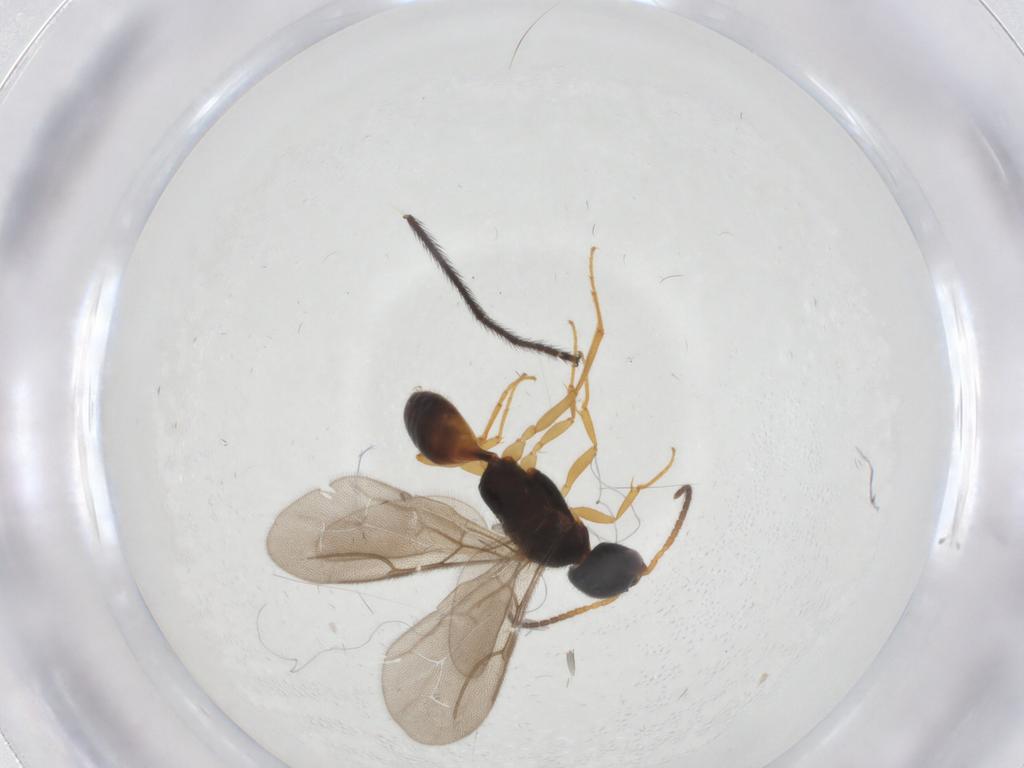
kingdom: Animalia
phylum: Arthropoda
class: Insecta
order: Hymenoptera
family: Bethylidae
